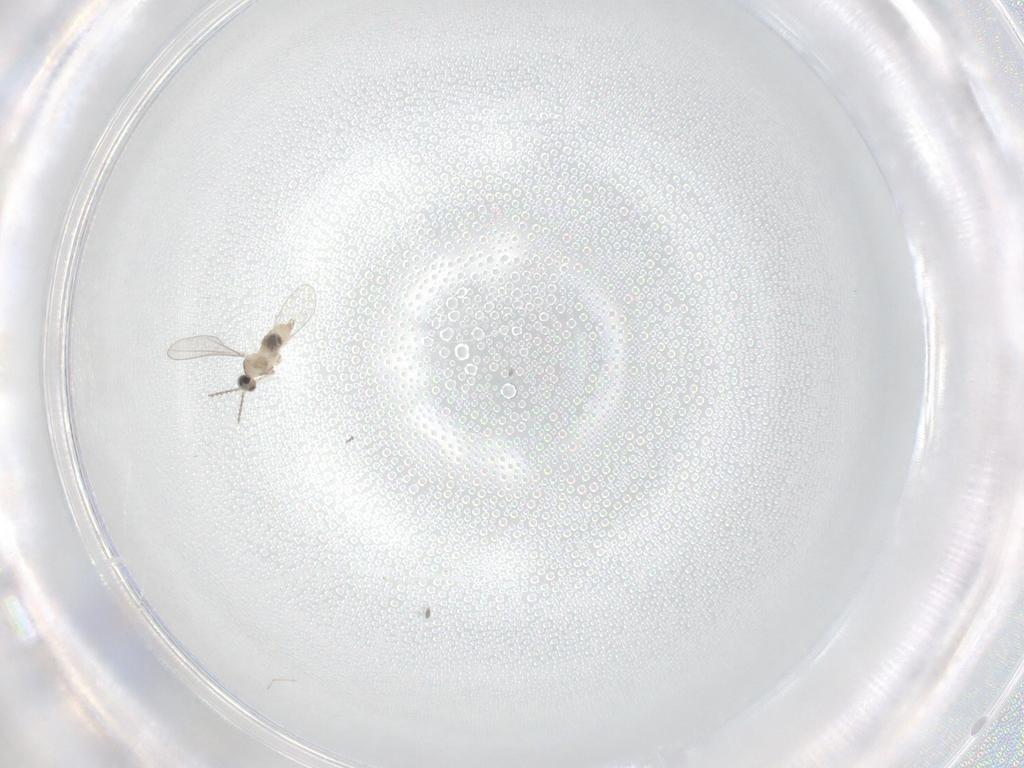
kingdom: Animalia
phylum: Arthropoda
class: Insecta
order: Diptera
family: Cecidomyiidae
